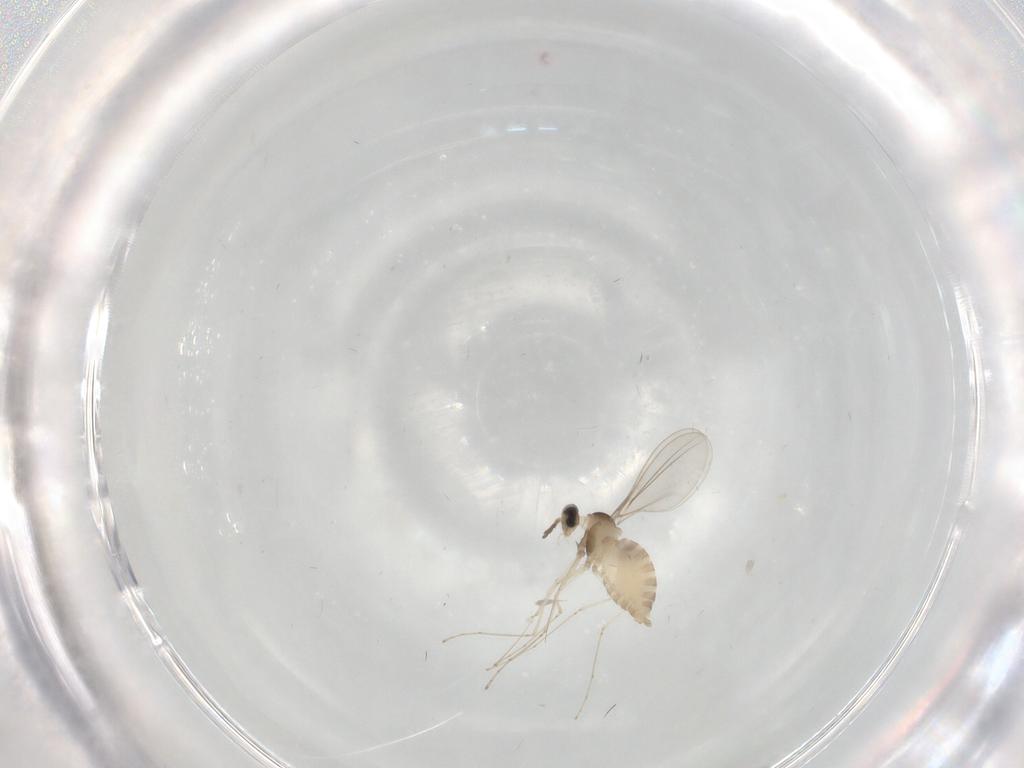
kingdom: Animalia
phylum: Arthropoda
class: Insecta
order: Diptera
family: Cecidomyiidae
